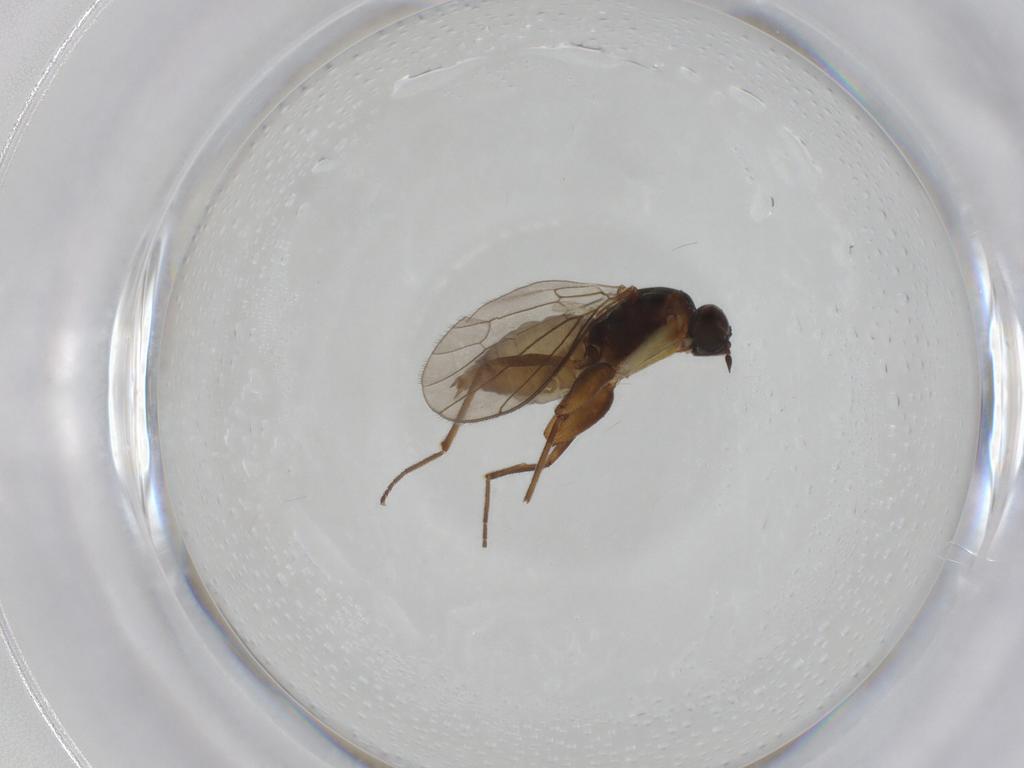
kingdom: Animalia
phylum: Arthropoda
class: Insecta
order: Diptera
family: Empididae
